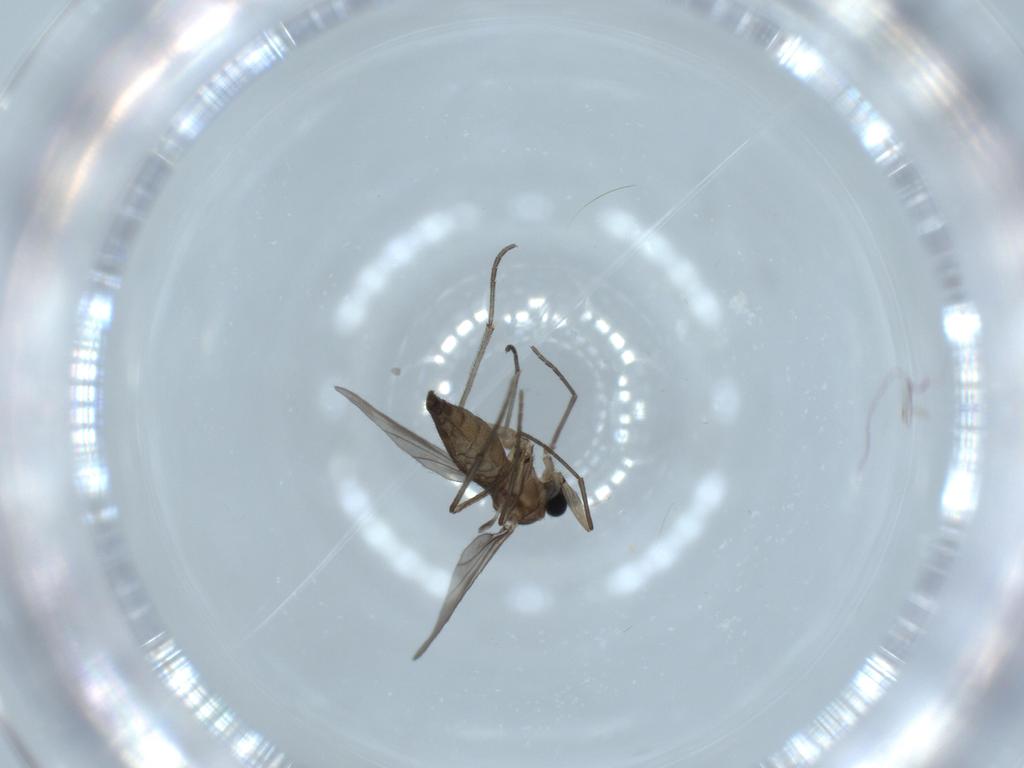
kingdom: Animalia
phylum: Arthropoda
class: Insecta
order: Diptera
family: Sciaridae
